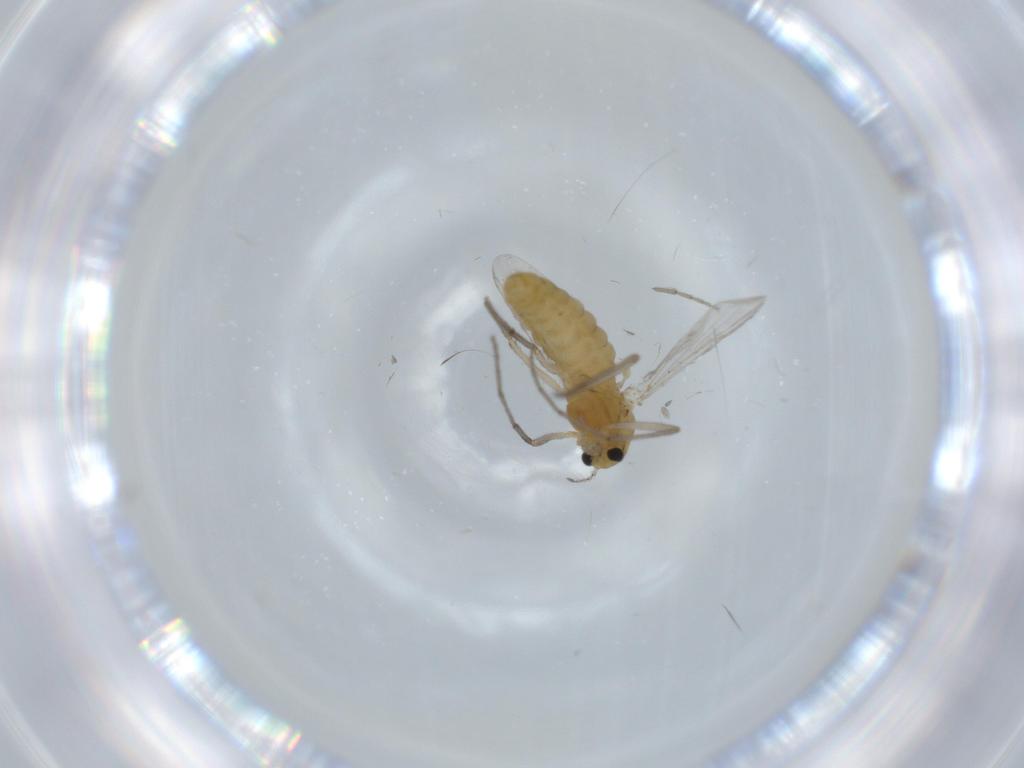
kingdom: Animalia
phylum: Arthropoda
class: Insecta
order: Diptera
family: Chironomidae
